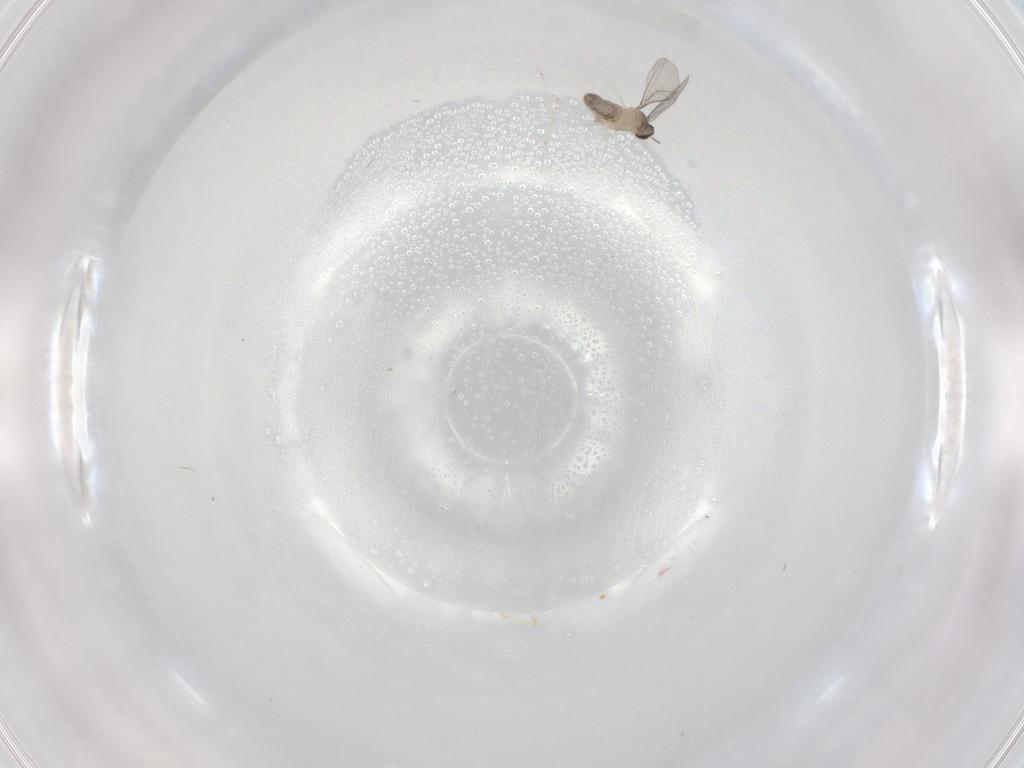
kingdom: Animalia
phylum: Arthropoda
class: Insecta
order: Diptera
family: Cecidomyiidae
